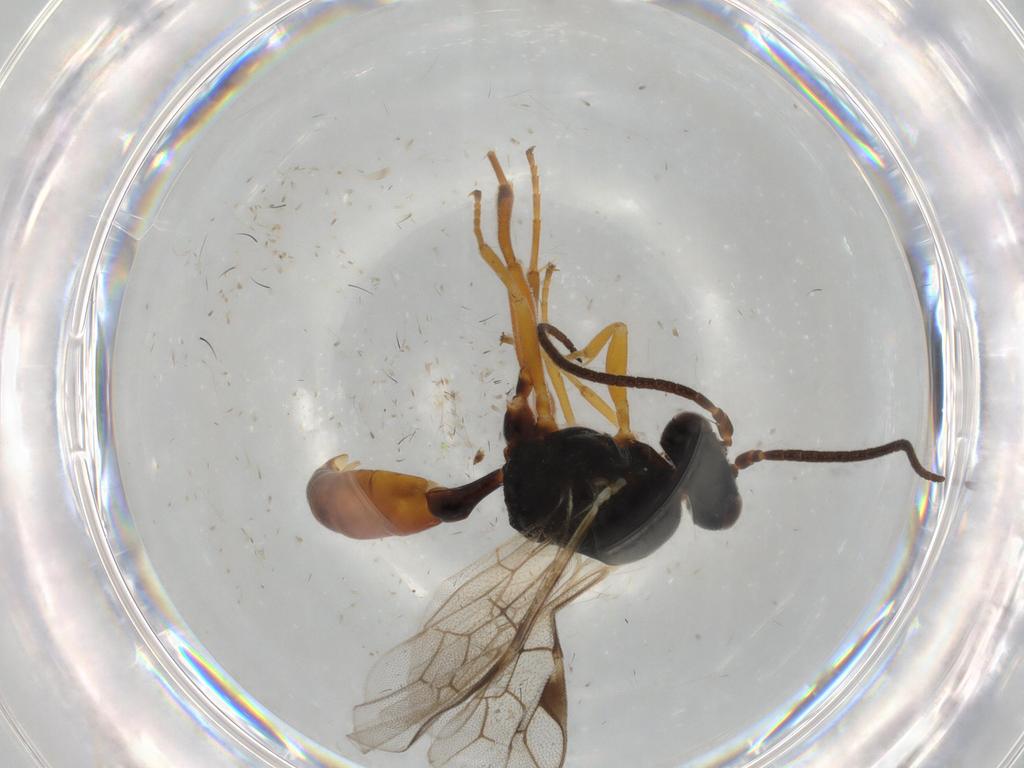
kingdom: Animalia
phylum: Arthropoda
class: Insecta
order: Hymenoptera
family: Ichneumonidae
